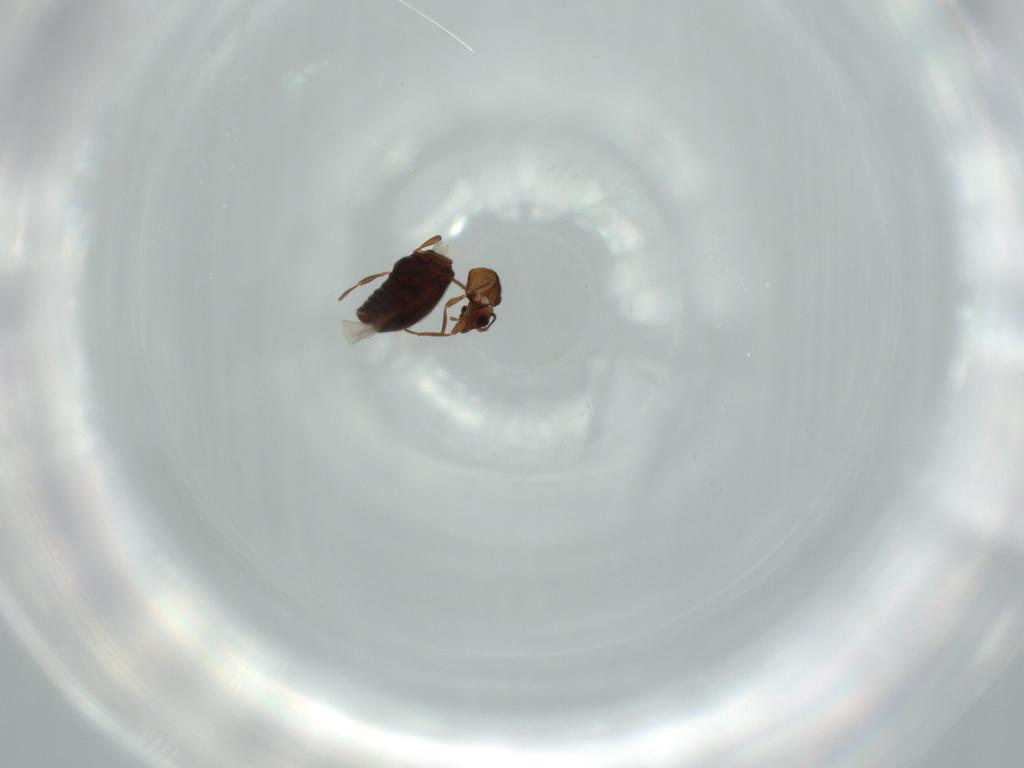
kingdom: Animalia
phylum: Arthropoda
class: Insecta
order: Coleoptera
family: Cryptophagidae
